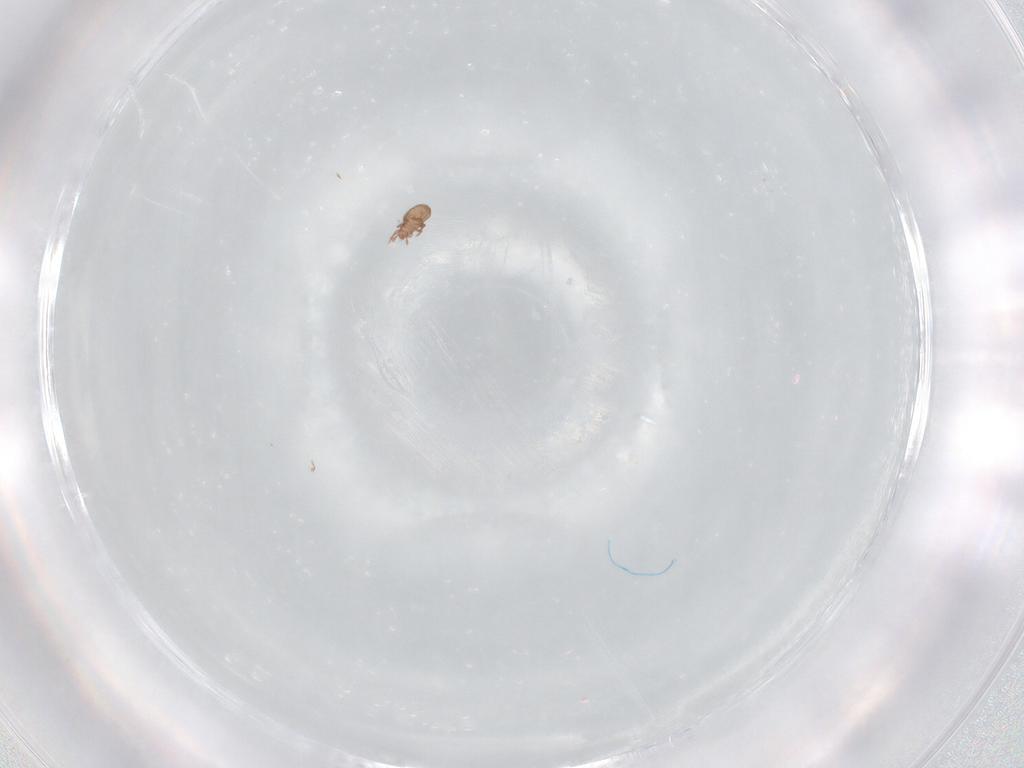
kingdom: Animalia
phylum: Arthropoda
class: Arachnida
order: Sarcoptiformes
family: Eremaeidae
